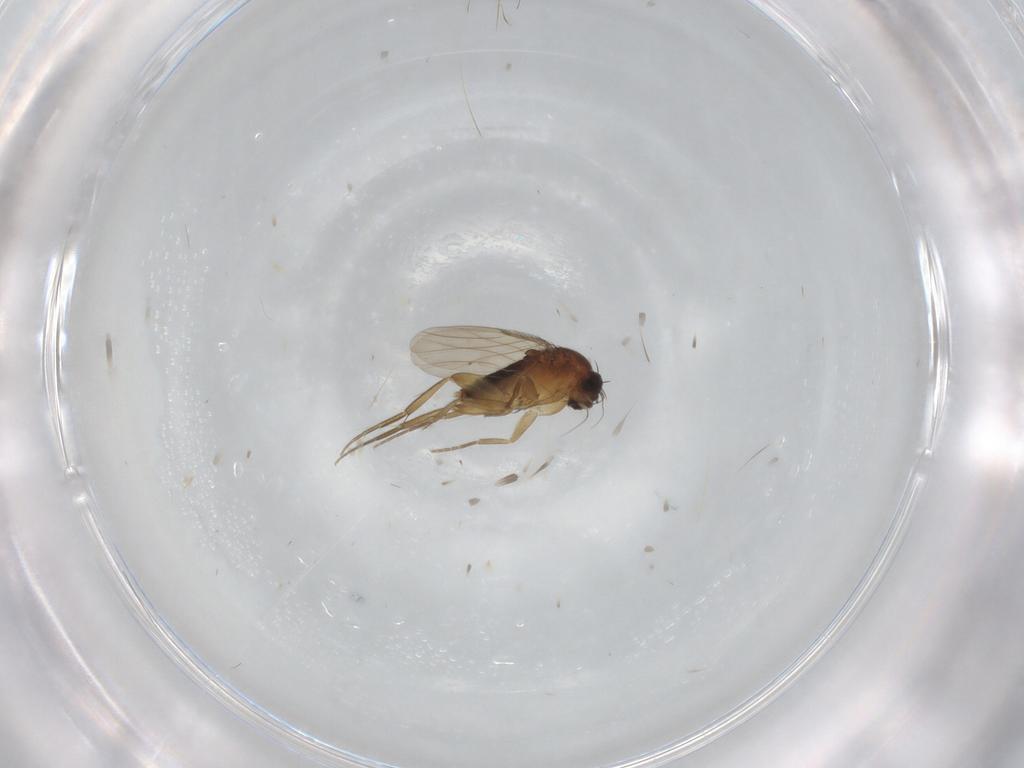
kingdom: Animalia
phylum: Arthropoda
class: Insecta
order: Diptera
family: Phoridae
